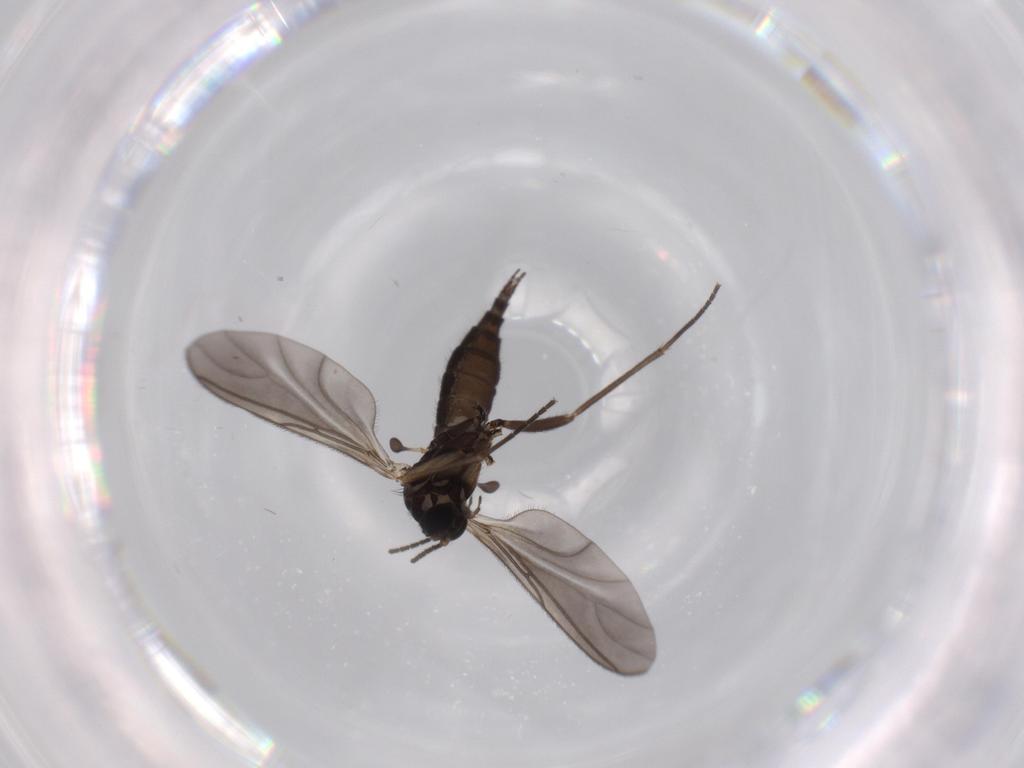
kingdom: Animalia
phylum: Arthropoda
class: Insecta
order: Diptera
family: Sciaridae
